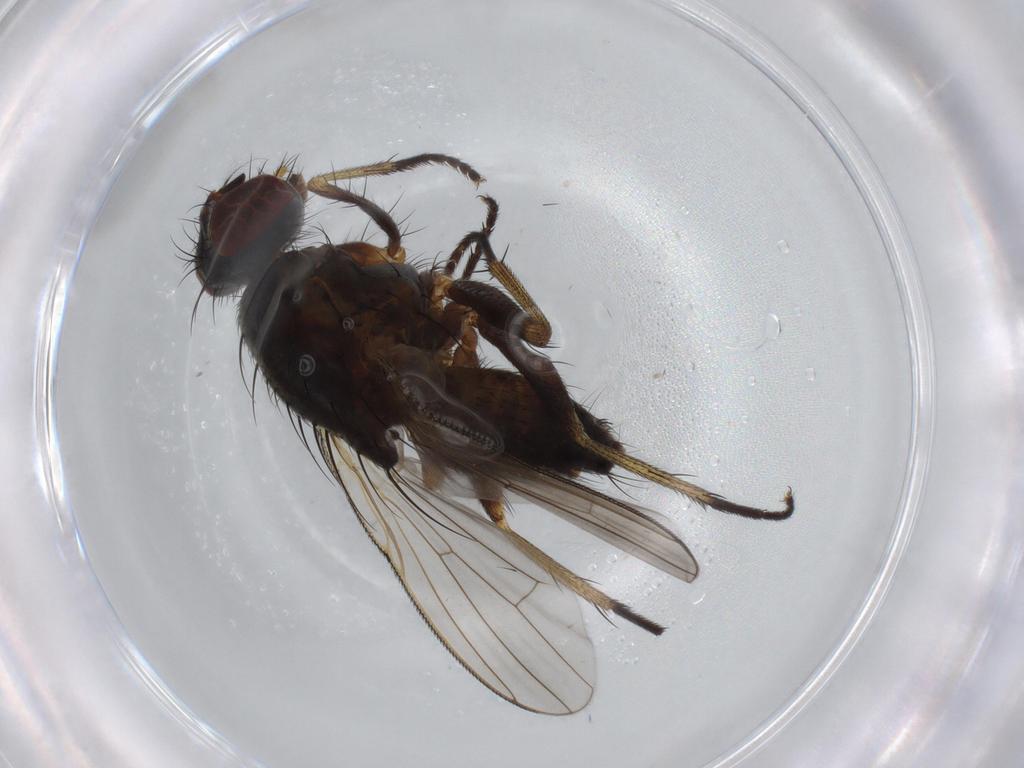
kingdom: Animalia
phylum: Arthropoda
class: Insecta
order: Diptera
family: Muscidae
